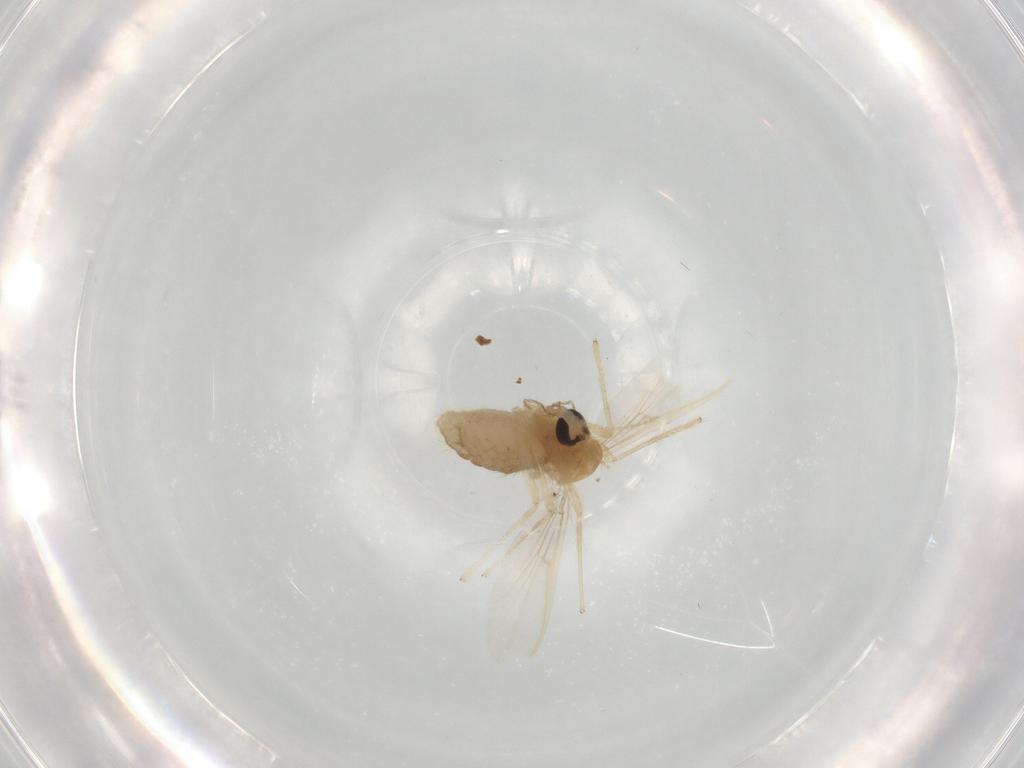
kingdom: Animalia
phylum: Arthropoda
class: Insecta
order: Diptera
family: Chironomidae
